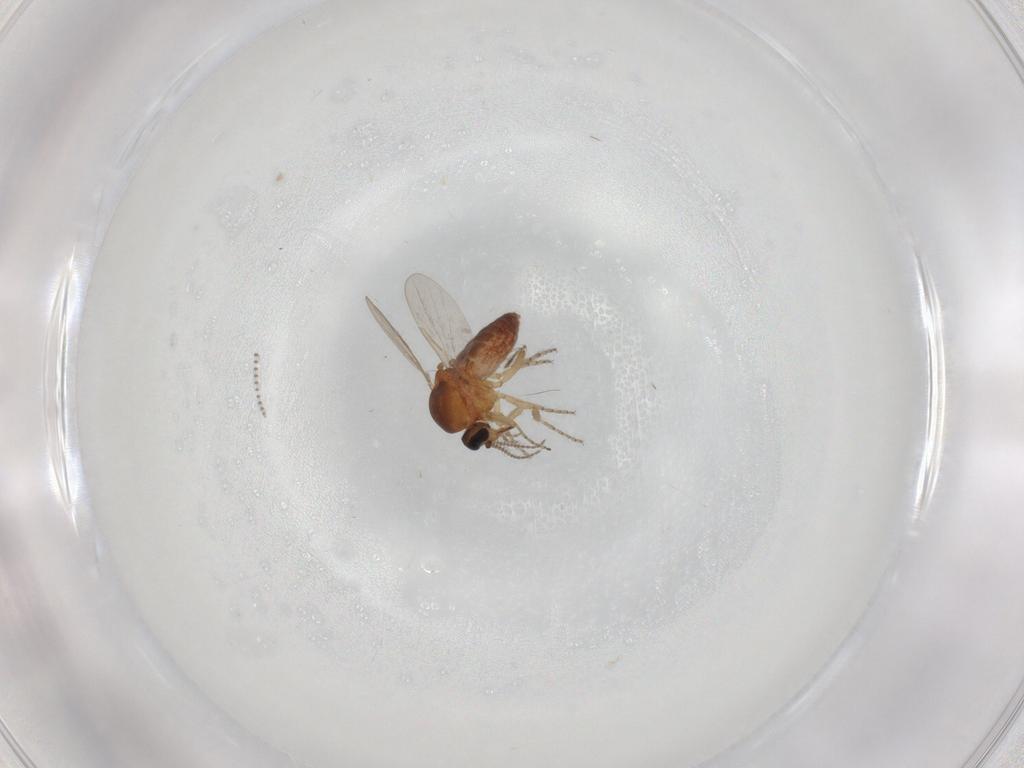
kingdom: Animalia
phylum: Arthropoda
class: Insecta
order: Diptera
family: Ceratopogonidae
